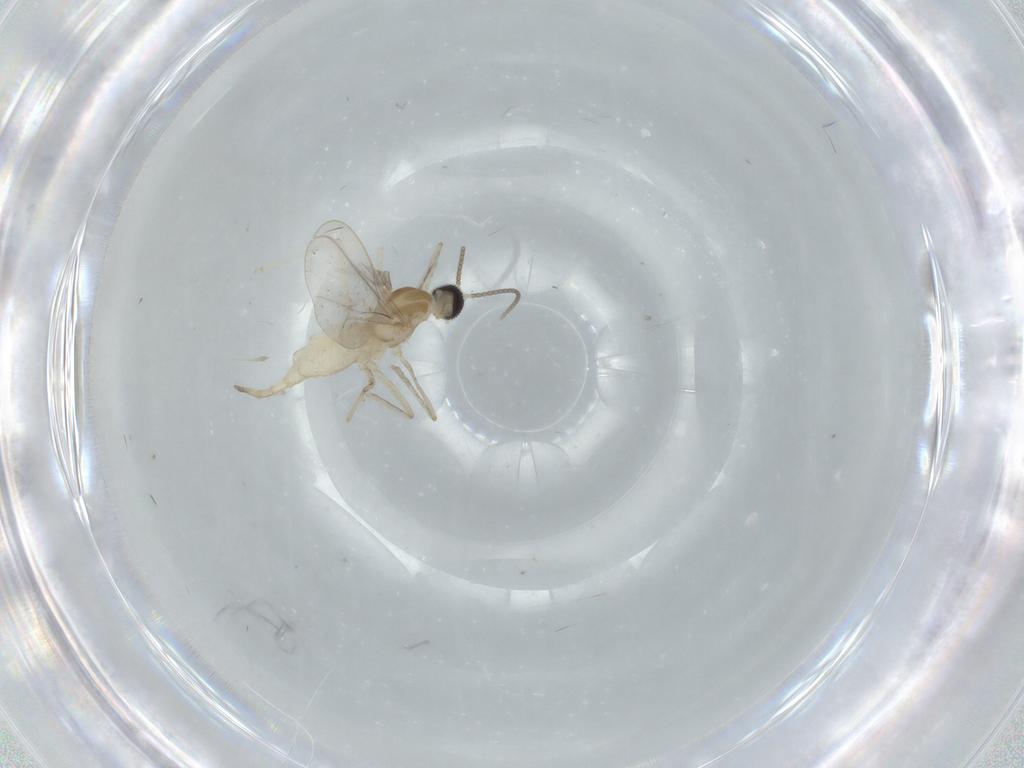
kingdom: Animalia
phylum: Arthropoda
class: Insecta
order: Diptera
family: Cecidomyiidae
